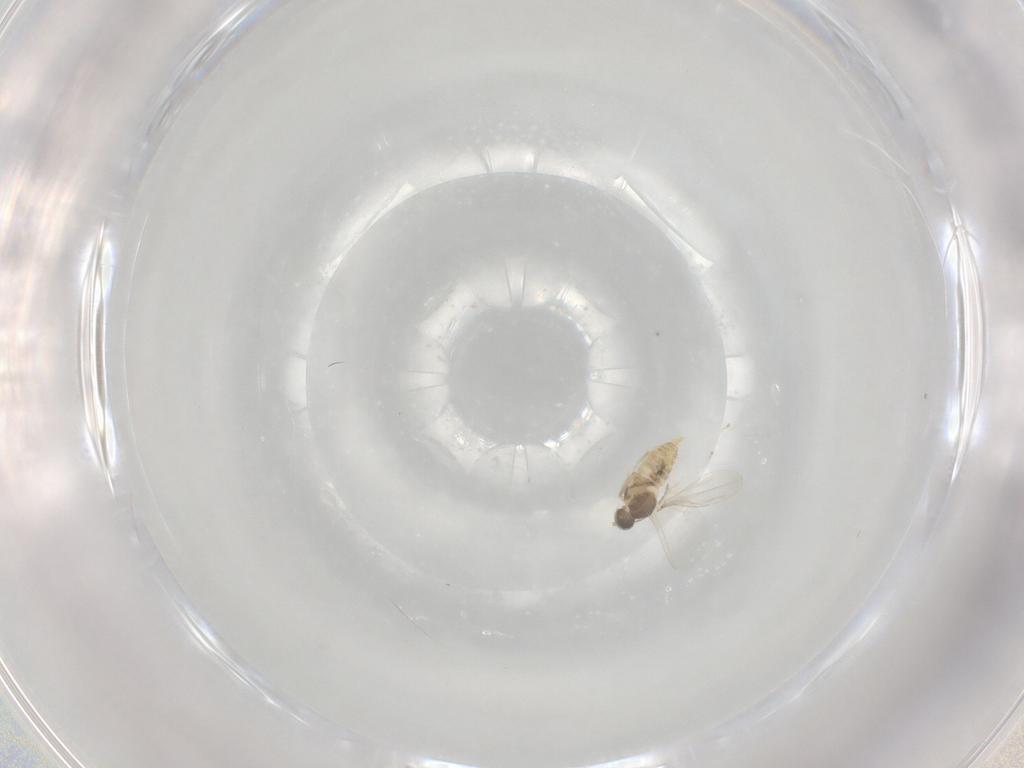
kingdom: Animalia
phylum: Arthropoda
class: Insecta
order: Diptera
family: Cecidomyiidae
